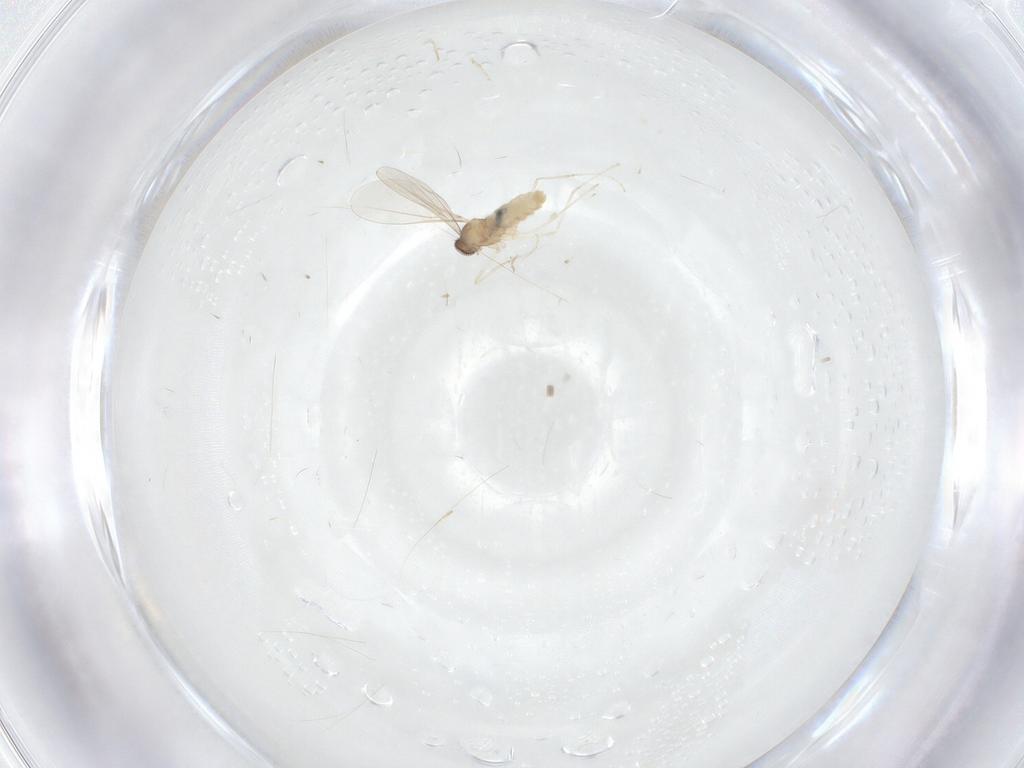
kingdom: Animalia
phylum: Arthropoda
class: Insecta
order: Diptera
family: Cecidomyiidae
